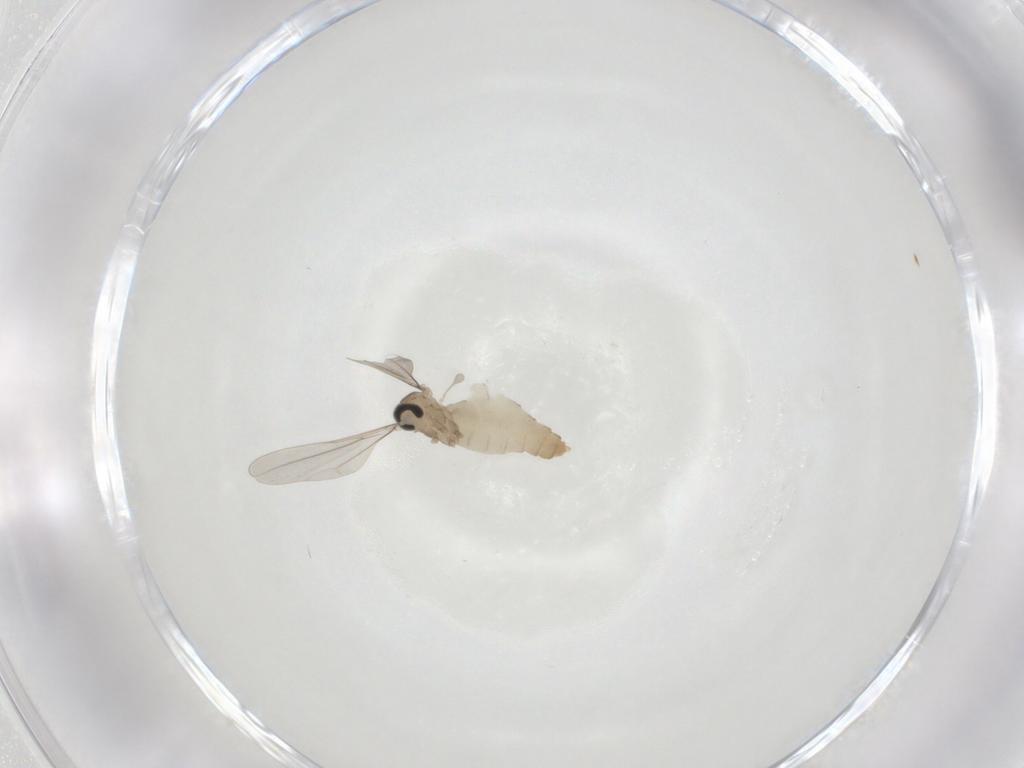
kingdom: Animalia
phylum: Arthropoda
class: Insecta
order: Diptera
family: Cecidomyiidae
